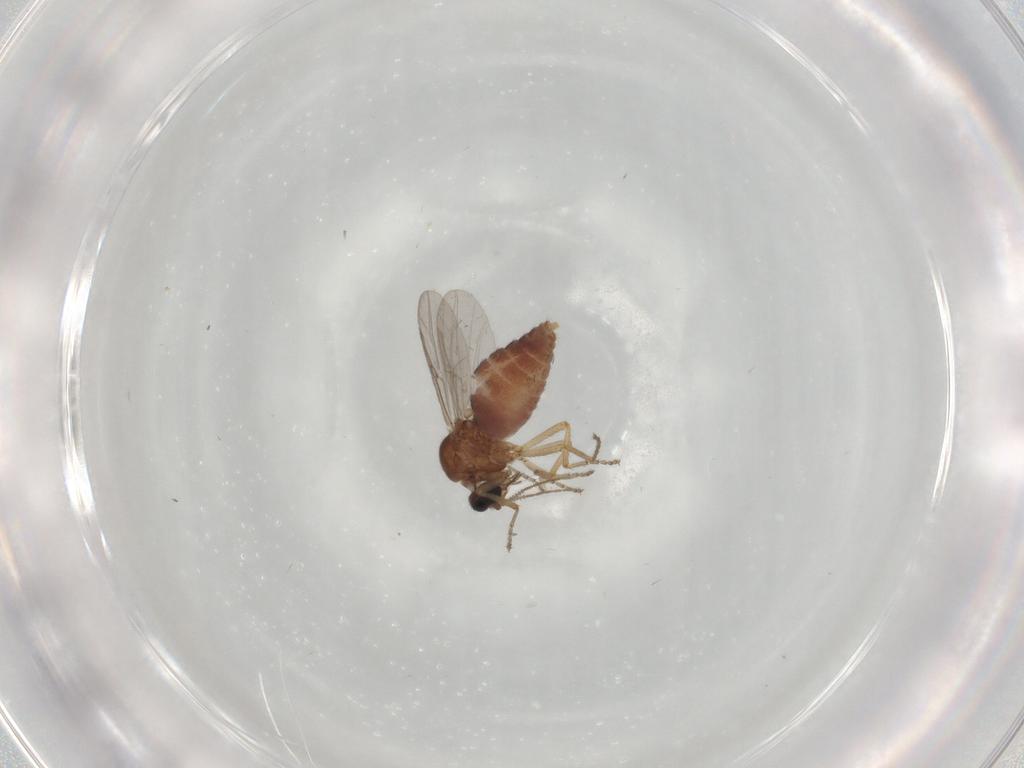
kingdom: Animalia
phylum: Arthropoda
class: Insecta
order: Diptera
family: Ceratopogonidae
